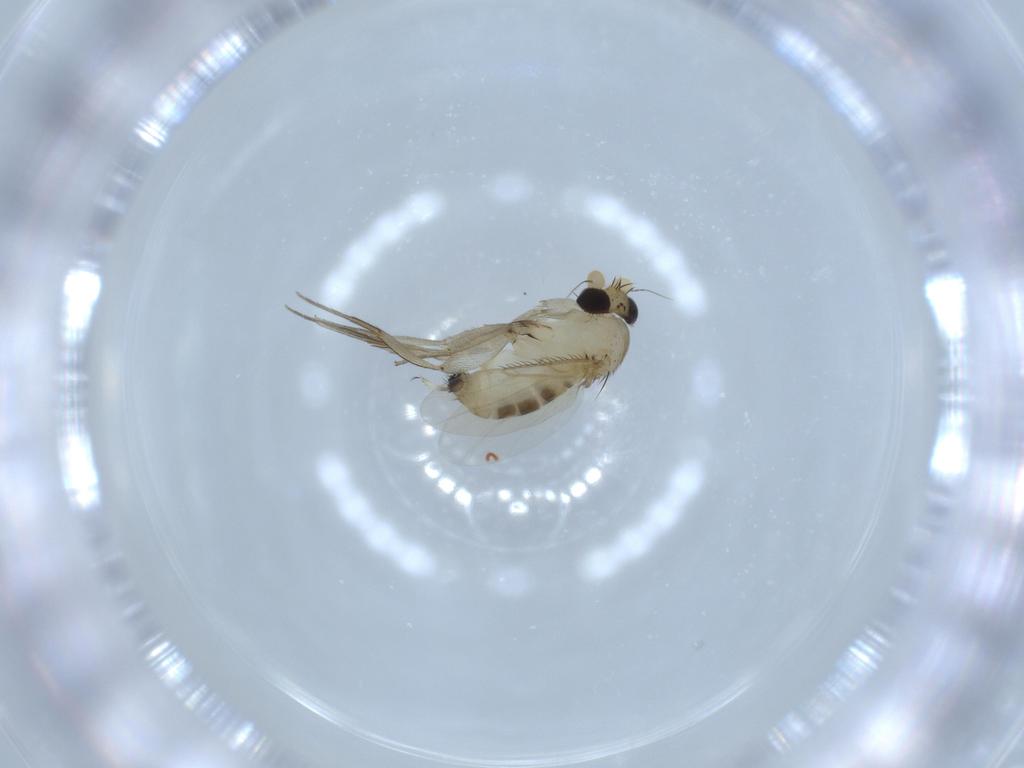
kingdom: Animalia
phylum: Arthropoda
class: Insecta
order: Diptera
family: Phoridae
